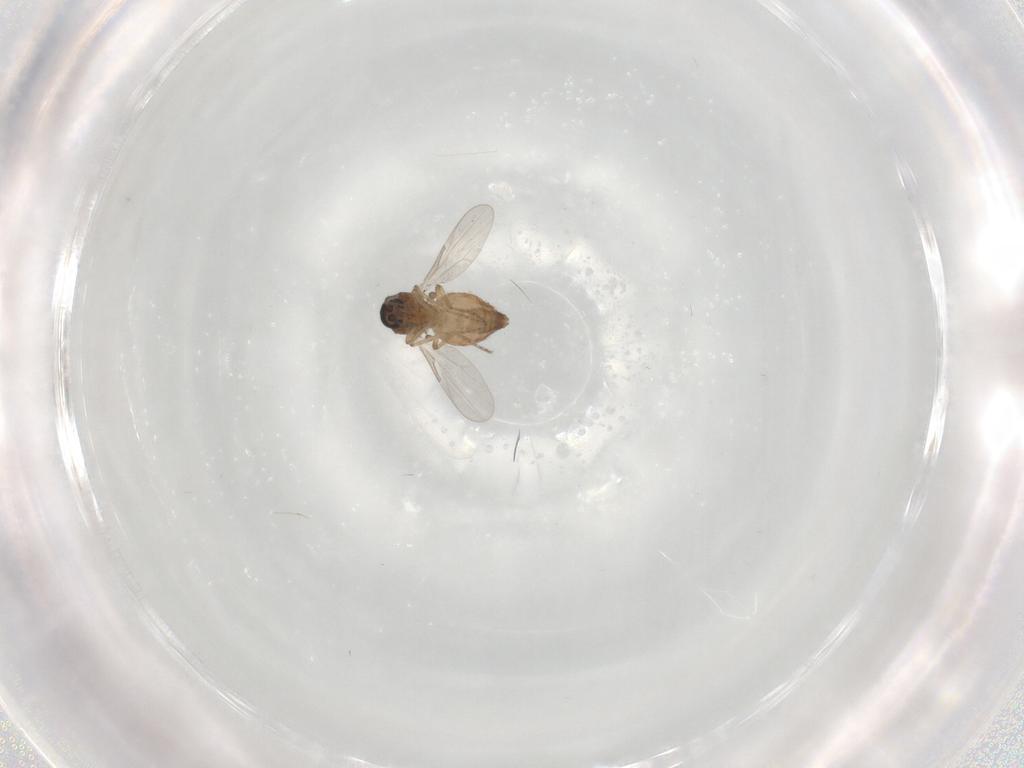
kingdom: Animalia
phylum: Arthropoda
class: Insecta
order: Diptera
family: Ceratopogonidae
